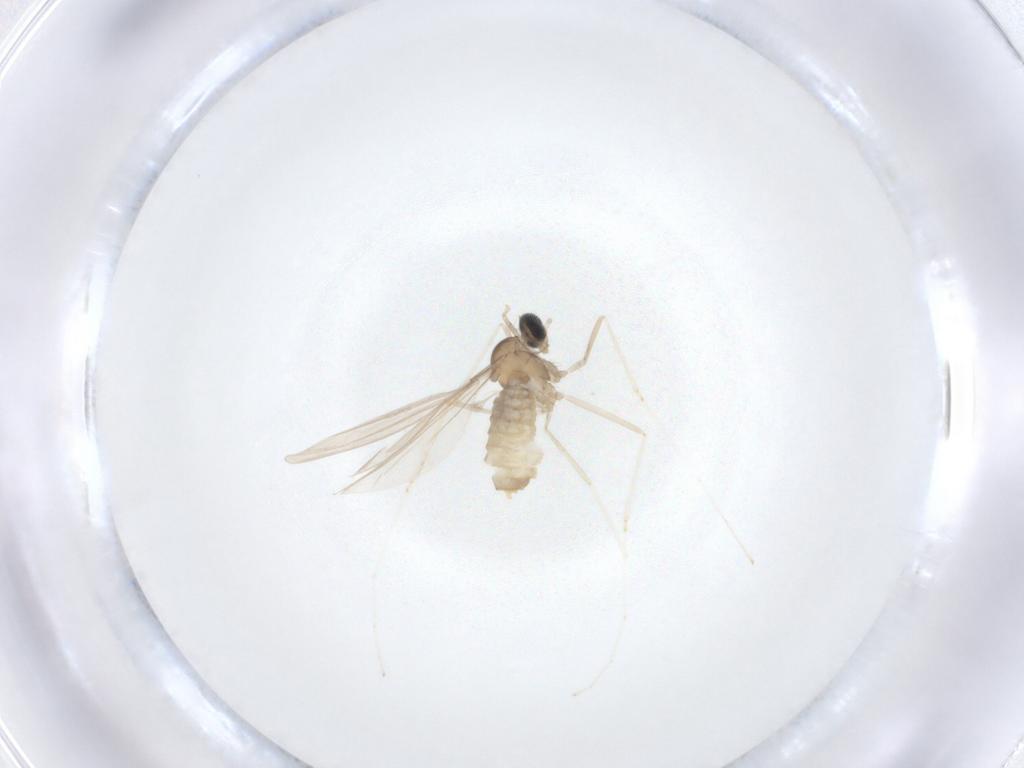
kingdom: Animalia
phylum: Arthropoda
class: Insecta
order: Diptera
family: Cecidomyiidae
